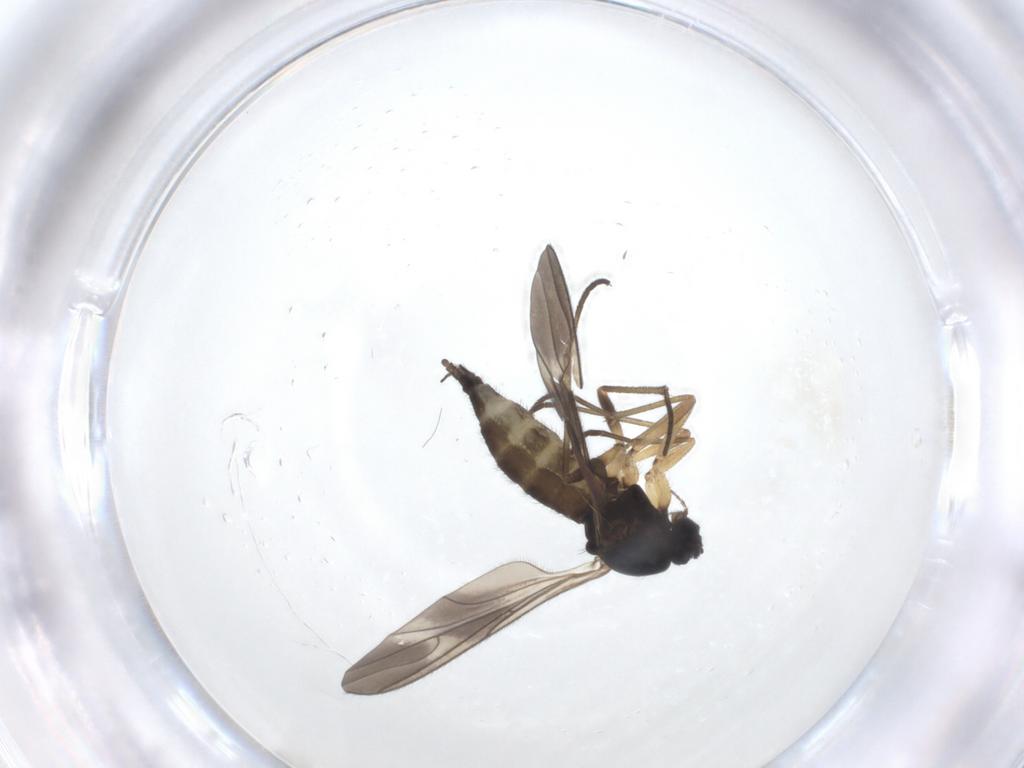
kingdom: Animalia
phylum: Arthropoda
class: Insecta
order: Diptera
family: Sciaridae
